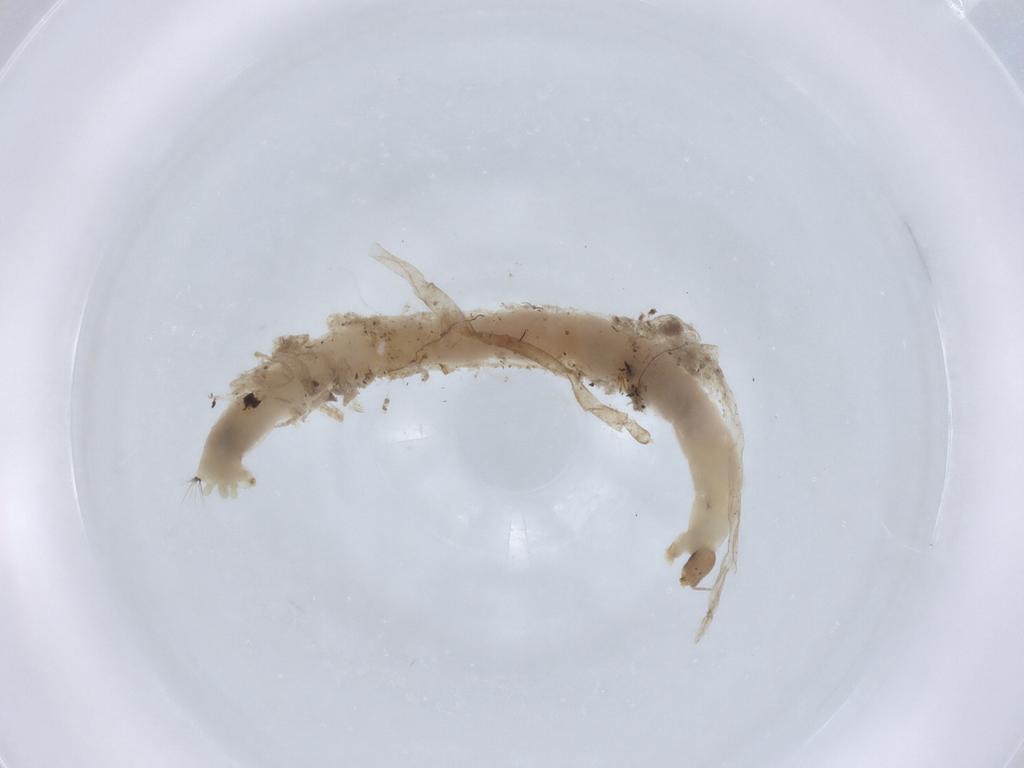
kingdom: Animalia
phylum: Arthropoda
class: Insecta
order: Diptera
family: Chironomidae
